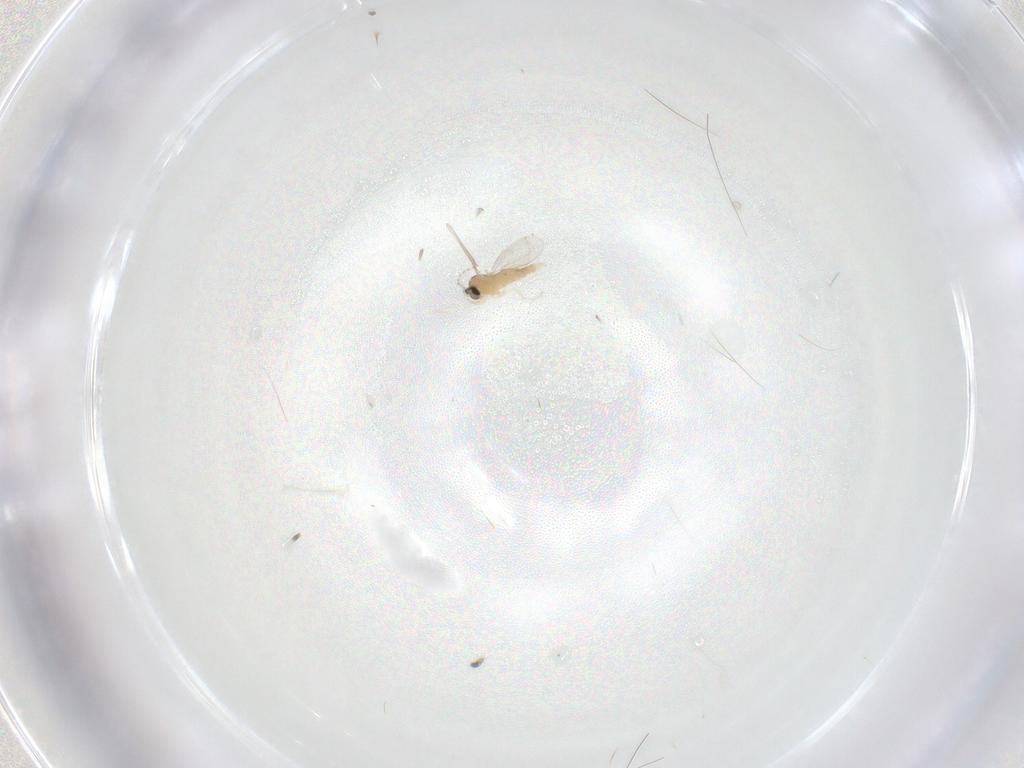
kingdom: Animalia
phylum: Arthropoda
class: Insecta
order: Diptera
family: Cecidomyiidae
